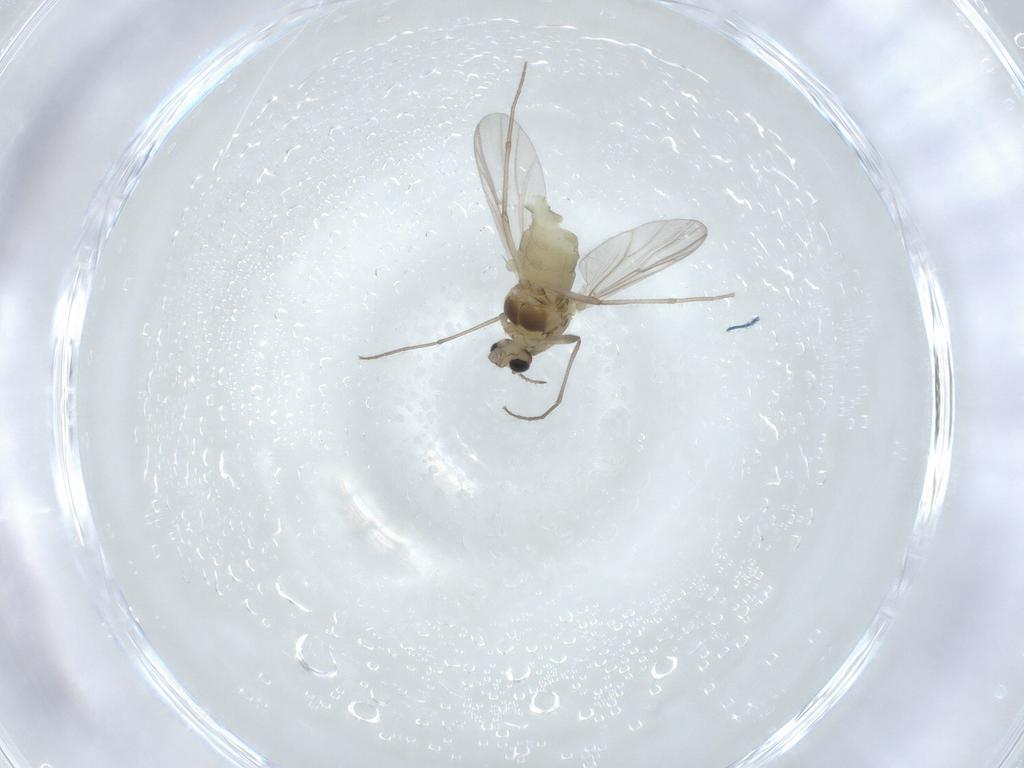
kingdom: Animalia
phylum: Arthropoda
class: Insecta
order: Diptera
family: Chironomidae
